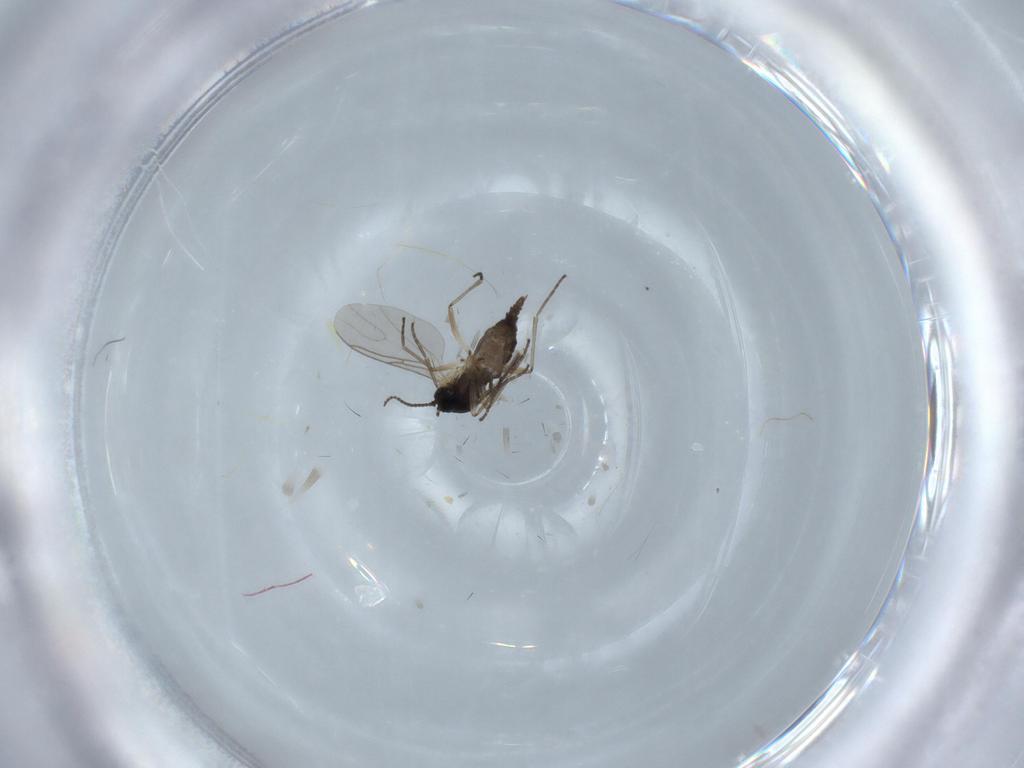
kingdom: Animalia
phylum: Arthropoda
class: Insecta
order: Diptera
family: Sciaridae
